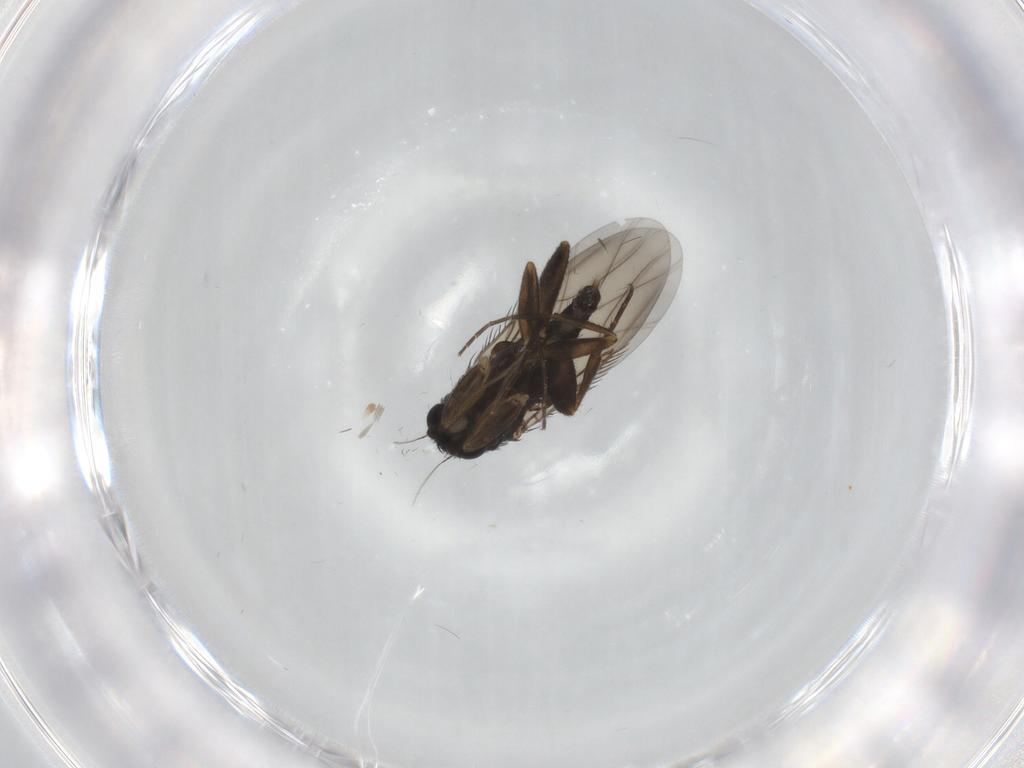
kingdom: Animalia
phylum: Arthropoda
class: Insecta
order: Diptera
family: Phoridae
